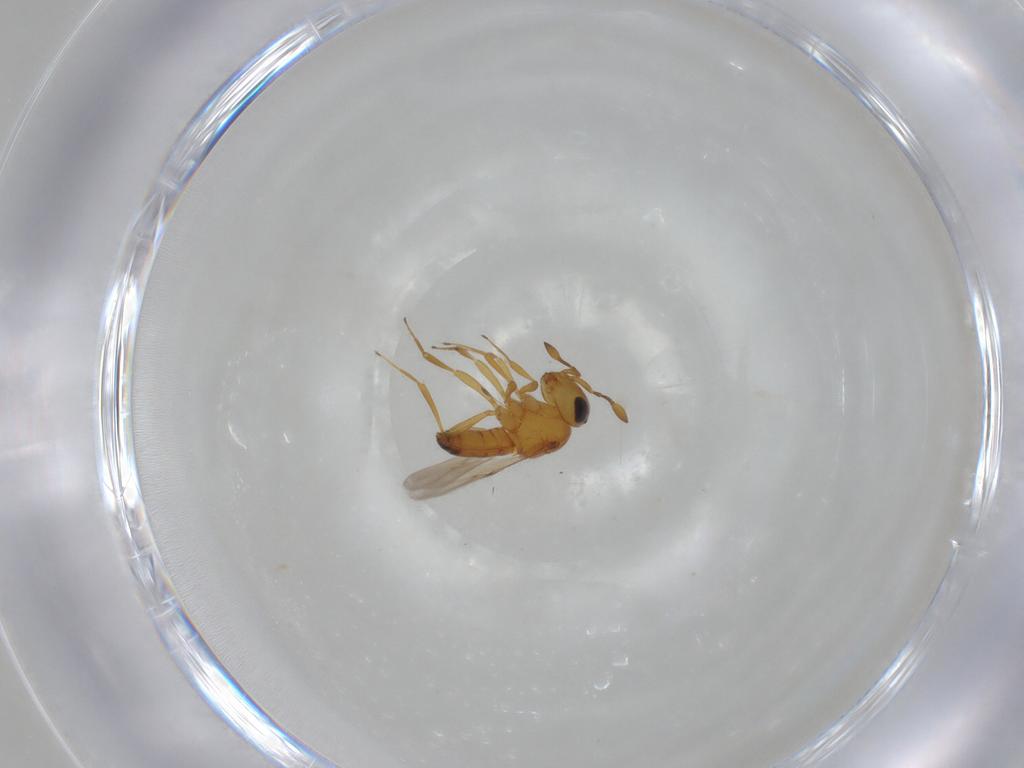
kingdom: Animalia
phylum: Arthropoda
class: Insecta
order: Hymenoptera
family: Scelionidae
